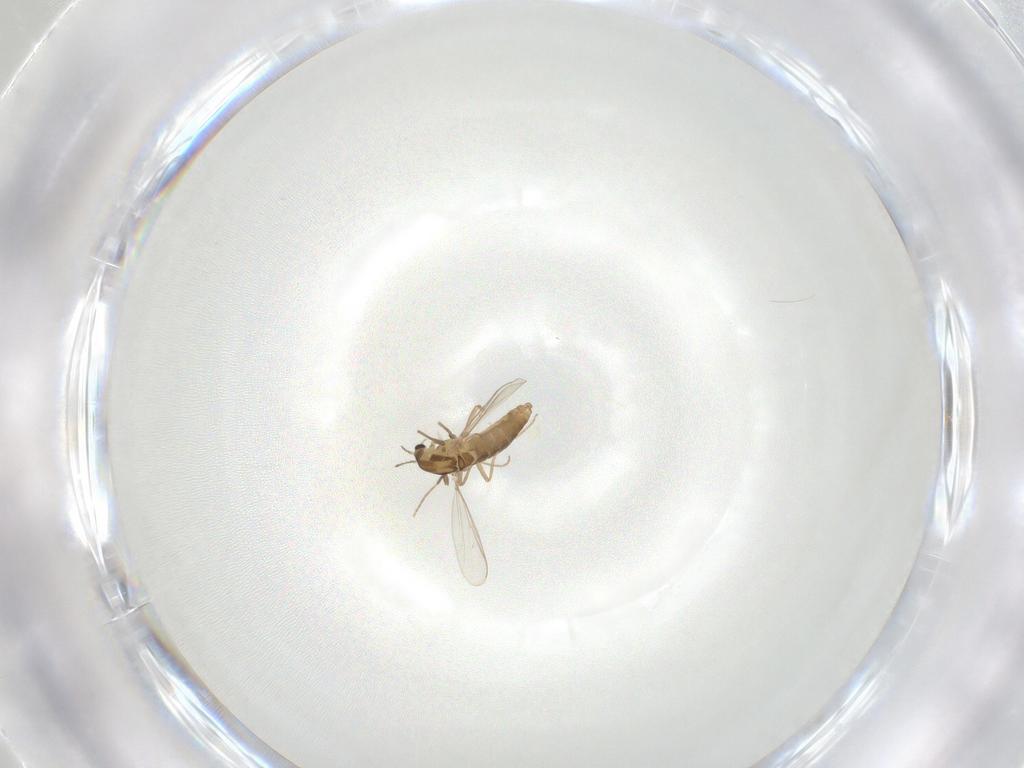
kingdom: Animalia
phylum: Arthropoda
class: Insecta
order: Diptera
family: Chironomidae
